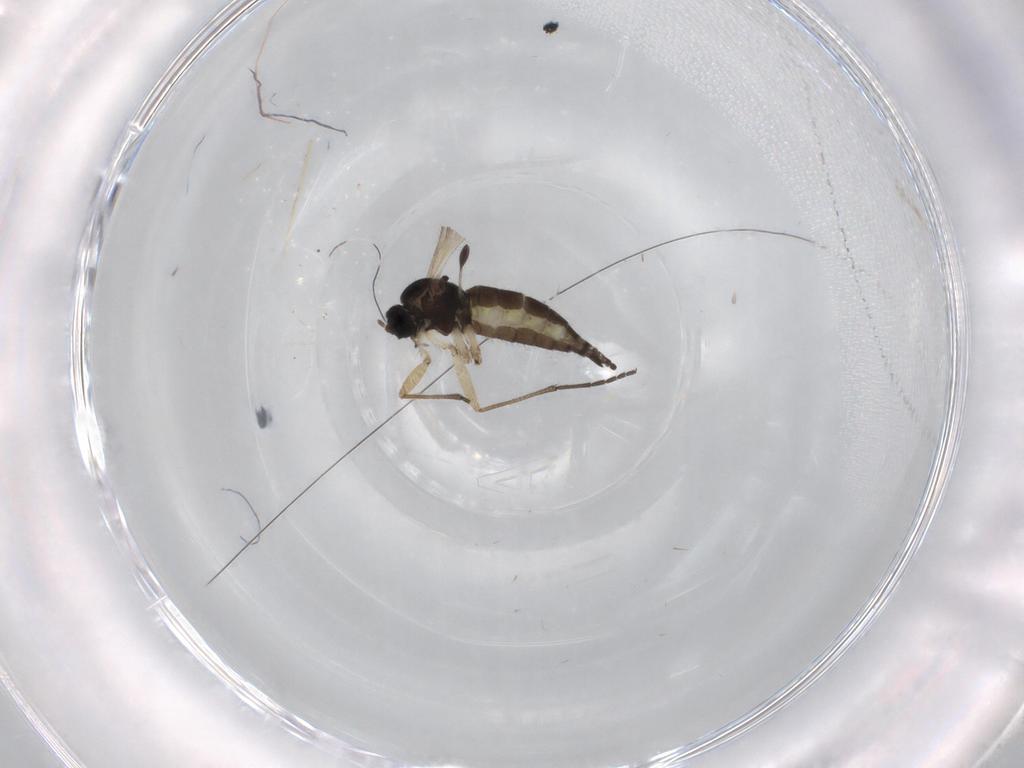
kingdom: Animalia
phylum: Arthropoda
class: Insecta
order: Diptera
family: Sciaridae
